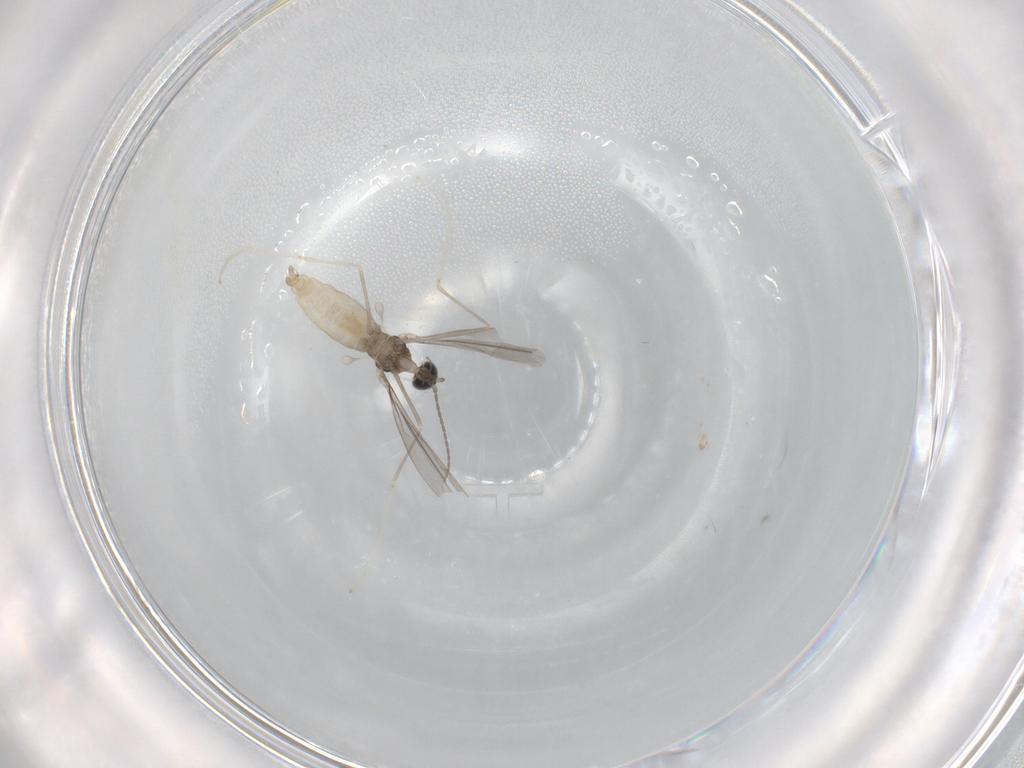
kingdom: Animalia
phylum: Arthropoda
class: Insecta
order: Diptera
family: Cecidomyiidae
